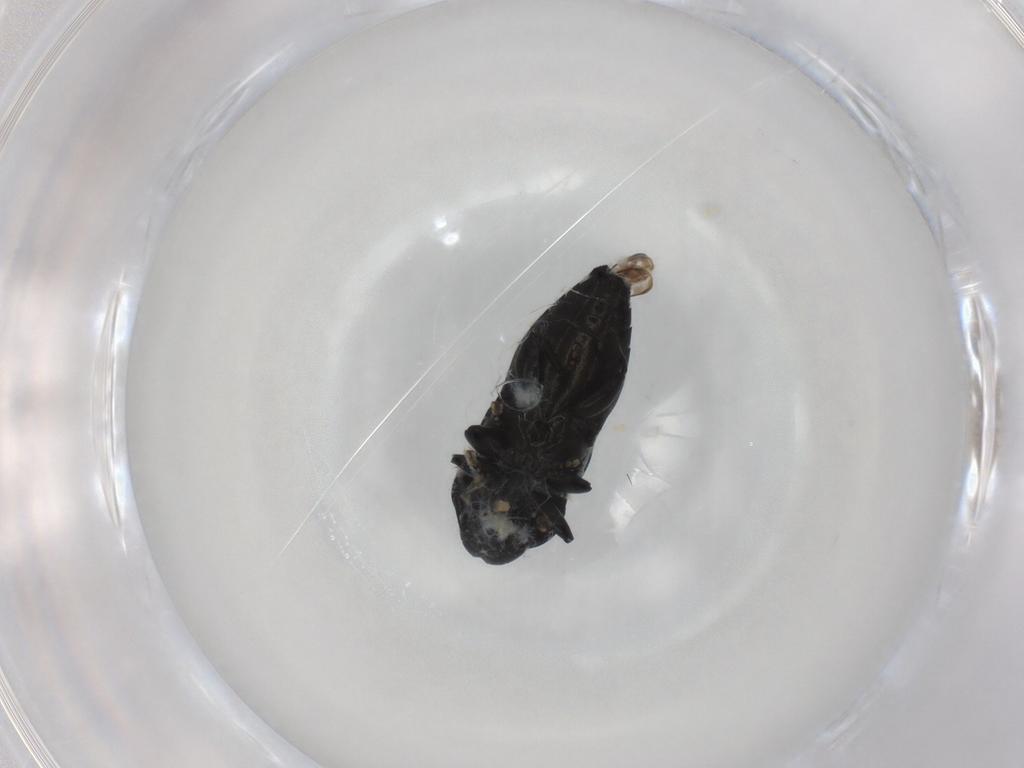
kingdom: Animalia
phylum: Arthropoda
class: Insecta
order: Coleoptera
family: Buprestidae
